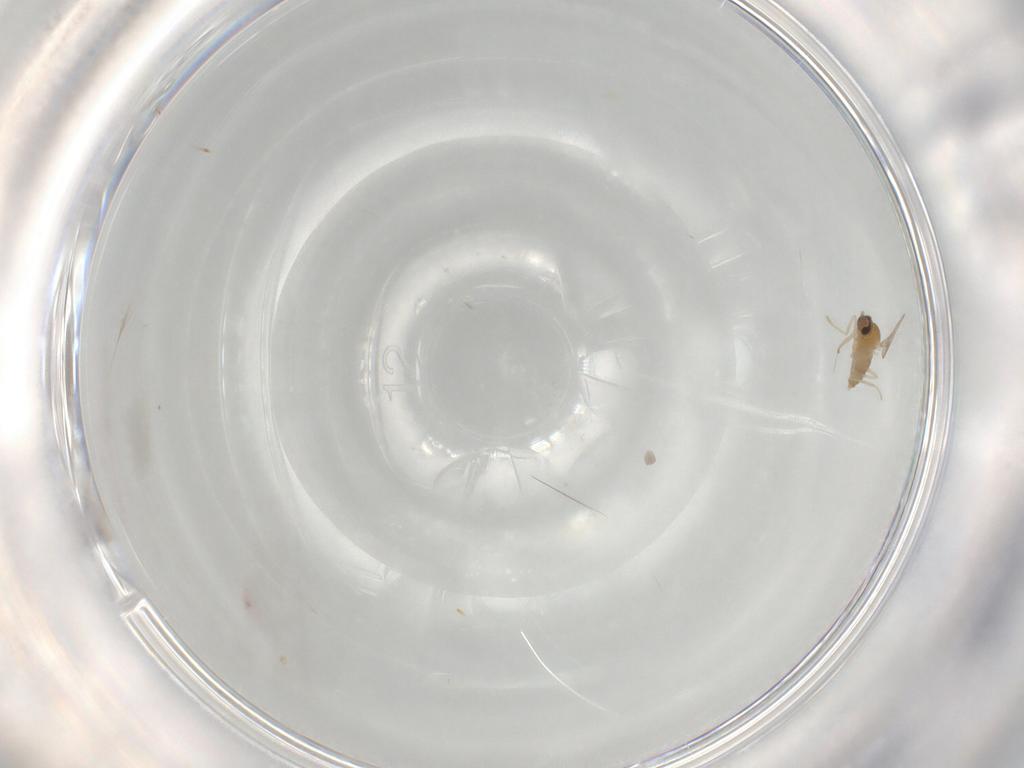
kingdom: Animalia
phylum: Arthropoda
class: Insecta
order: Diptera
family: Cecidomyiidae
